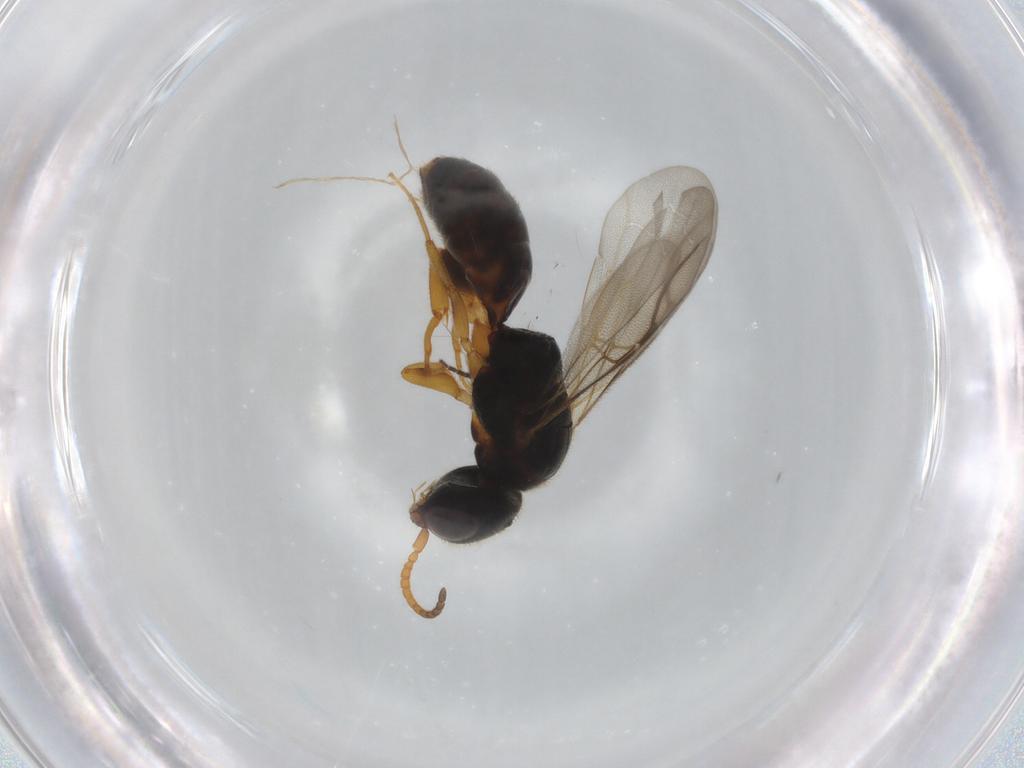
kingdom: Animalia
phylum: Arthropoda
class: Insecta
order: Hymenoptera
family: Bethylidae
